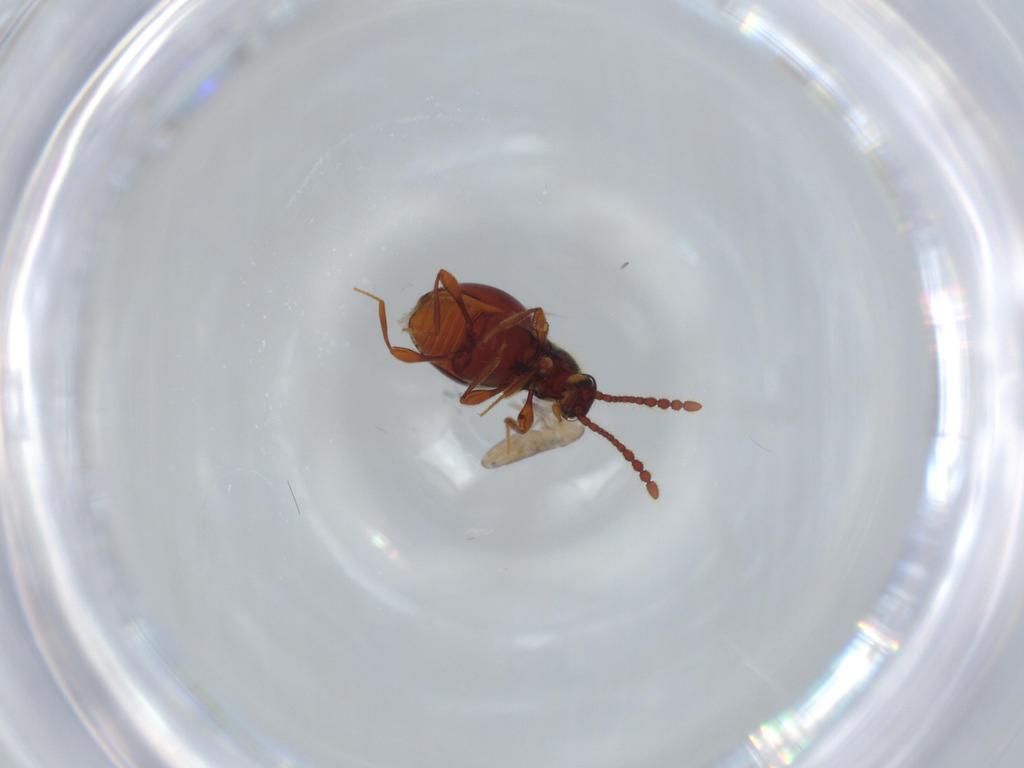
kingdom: Animalia
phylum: Arthropoda
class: Insecta
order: Coleoptera
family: Staphylinidae
